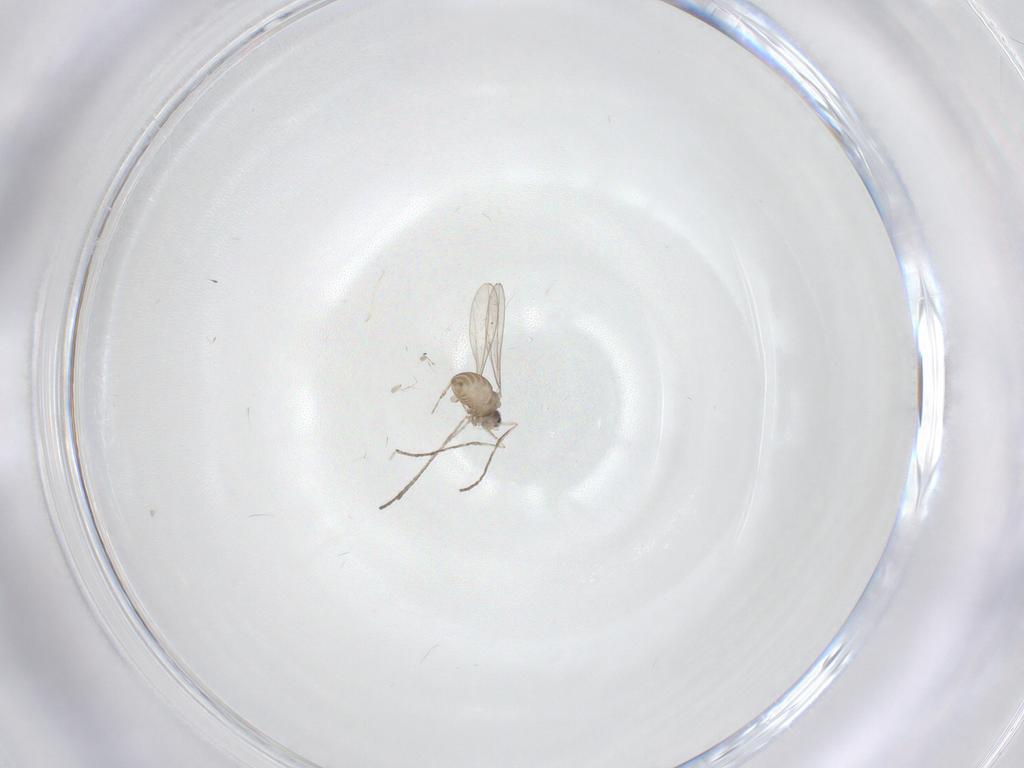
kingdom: Animalia
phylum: Arthropoda
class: Insecta
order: Diptera
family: Cecidomyiidae
